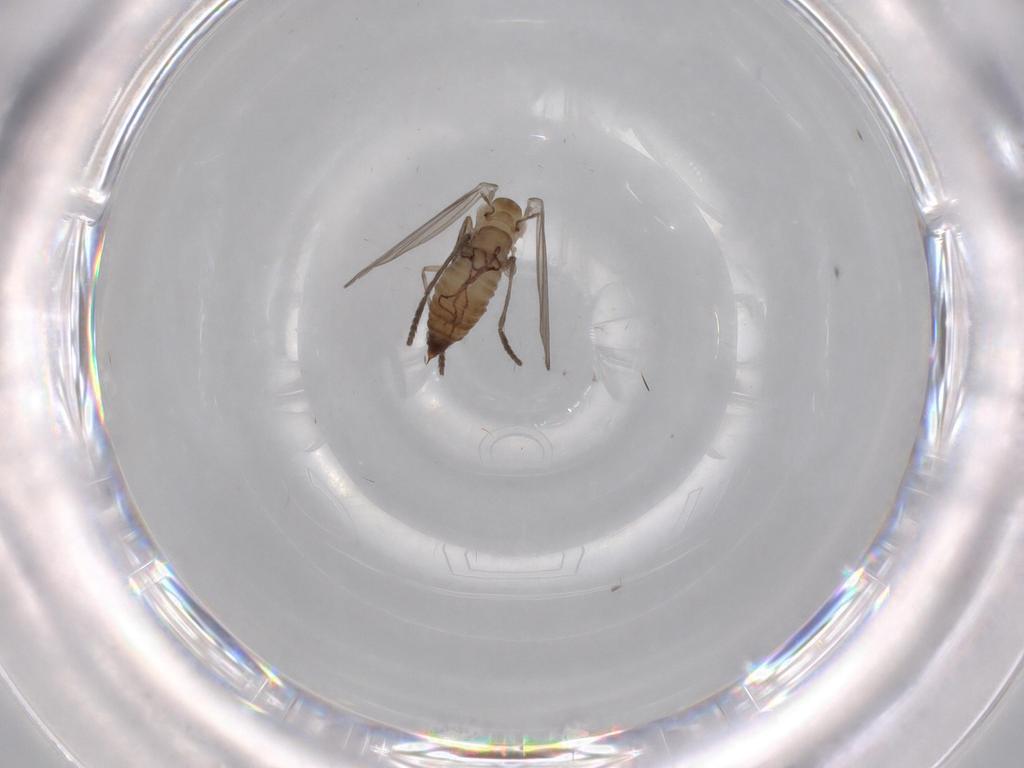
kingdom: Animalia
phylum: Arthropoda
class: Insecta
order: Diptera
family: Psychodidae
